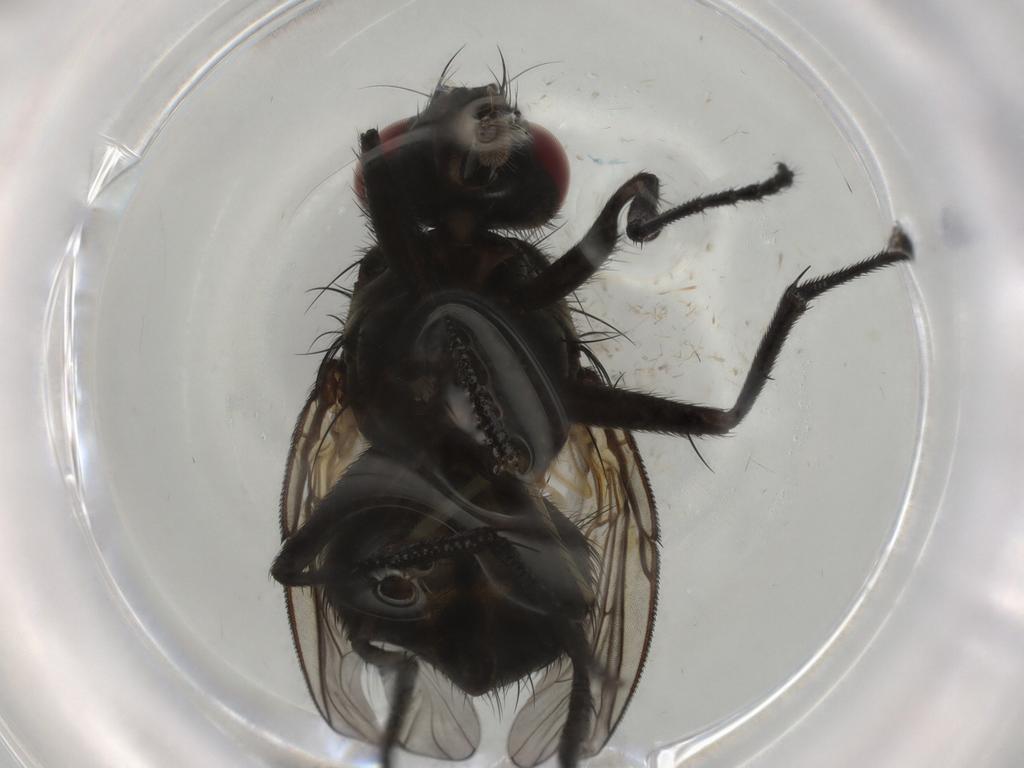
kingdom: Animalia
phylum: Arthropoda
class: Insecta
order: Diptera
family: Muscidae
